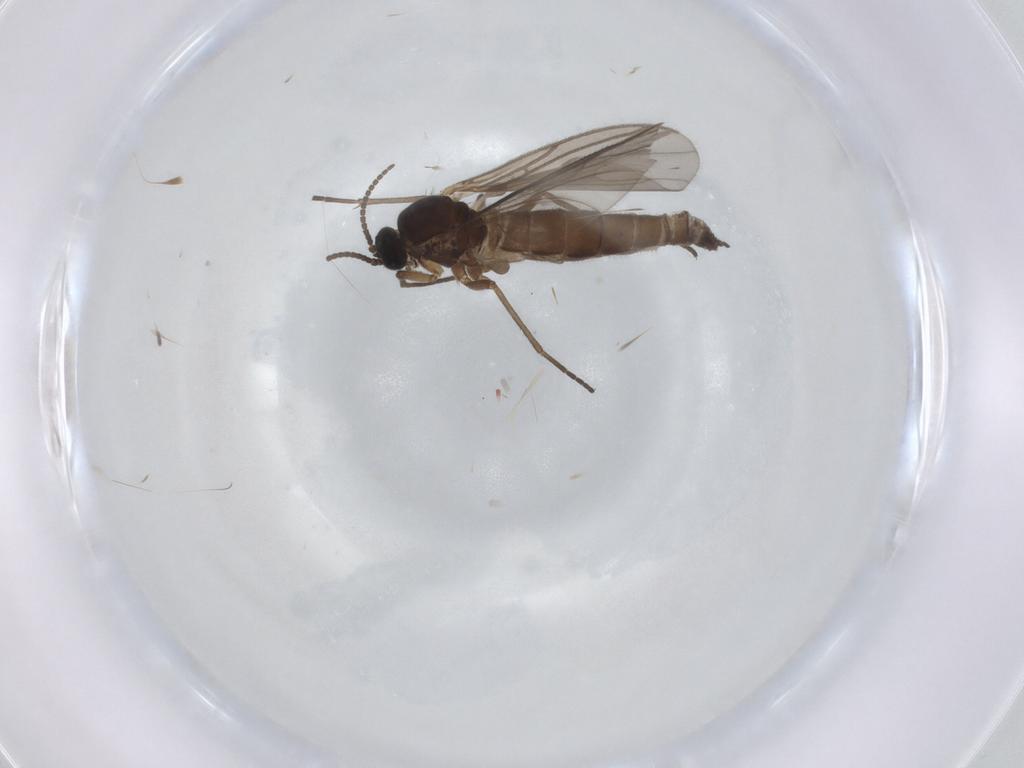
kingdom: Animalia
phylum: Arthropoda
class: Insecta
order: Diptera
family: Sciaridae
